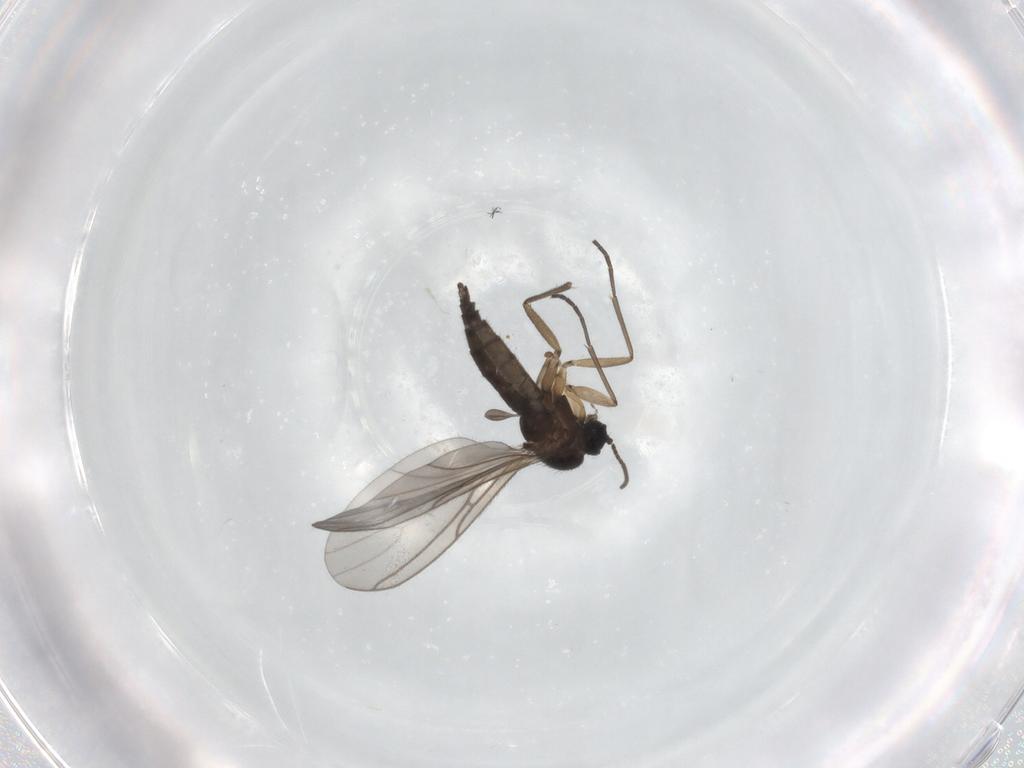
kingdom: Animalia
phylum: Arthropoda
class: Insecta
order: Diptera
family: Sciaridae
